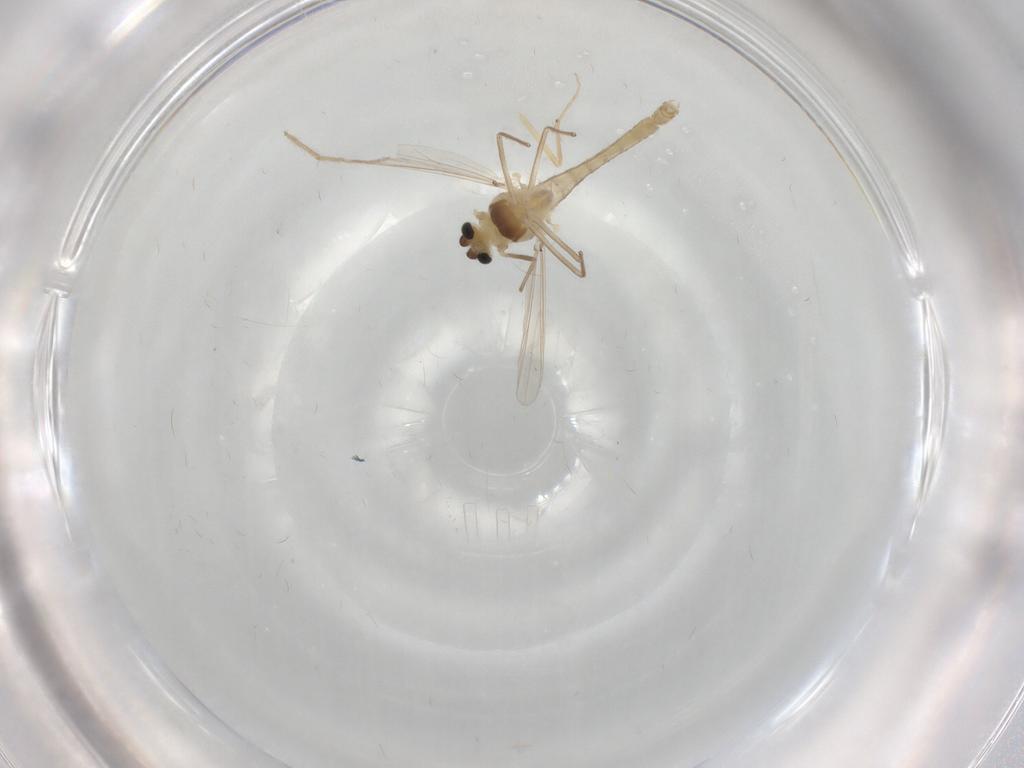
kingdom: Animalia
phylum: Arthropoda
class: Insecta
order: Diptera
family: Chironomidae
